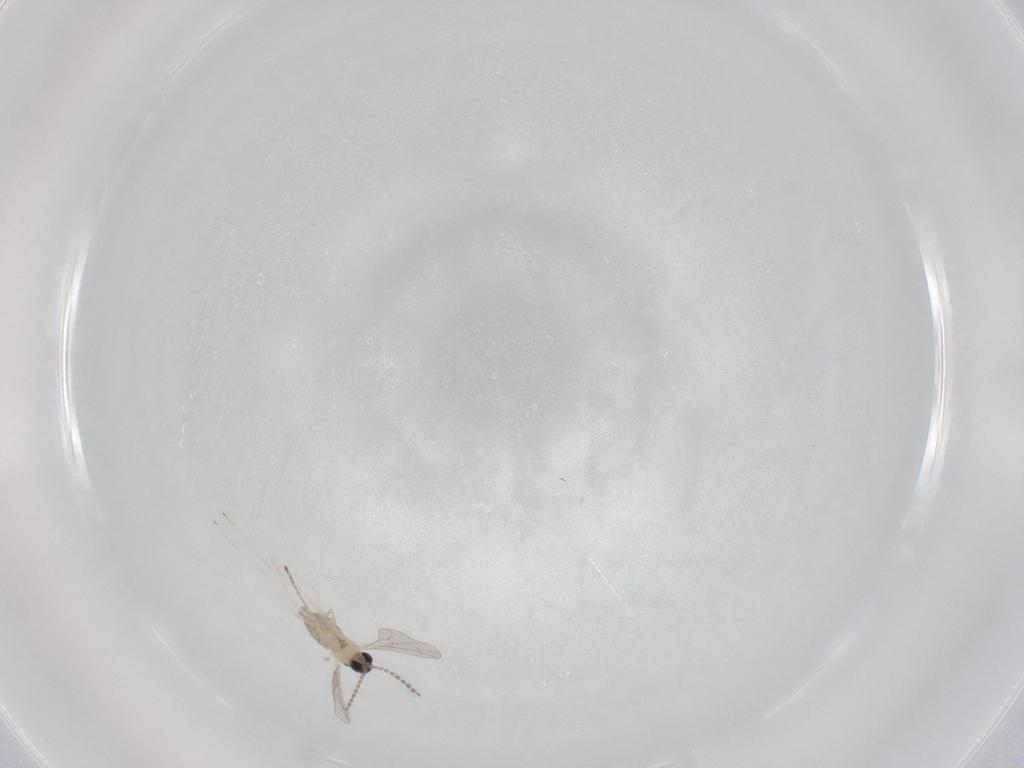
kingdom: Animalia
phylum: Arthropoda
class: Insecta
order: Diptera
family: Cecidomyiidae
